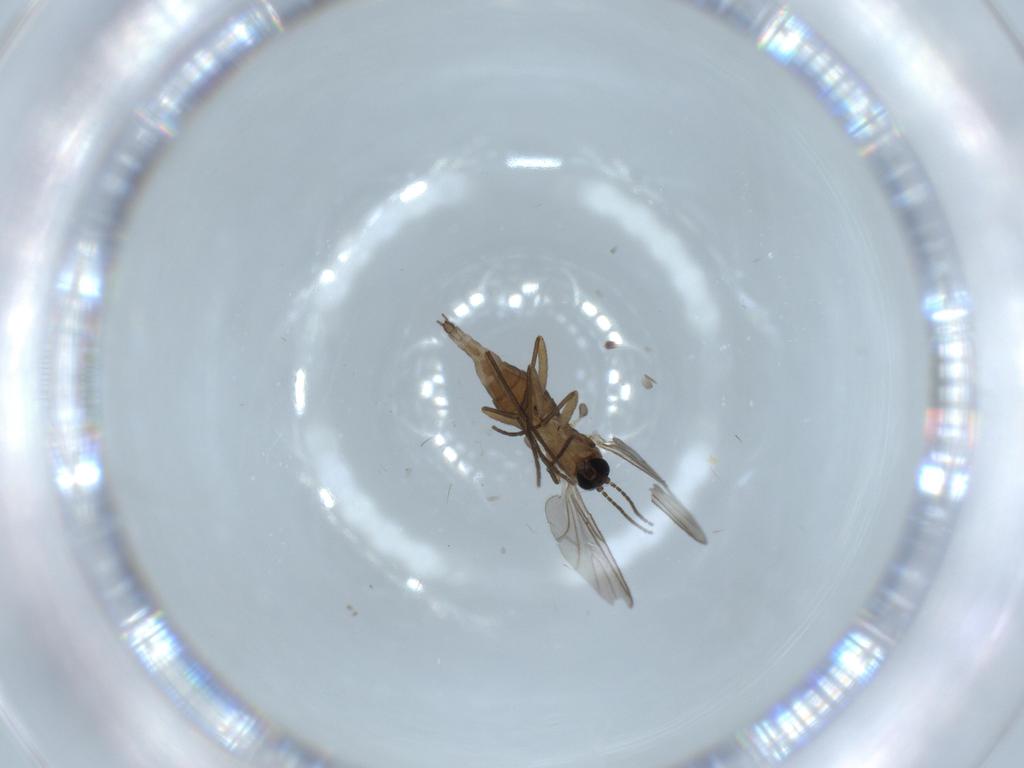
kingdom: Animalia
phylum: Arthropoda
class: Insecta
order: Diptera
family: Sciaridae
